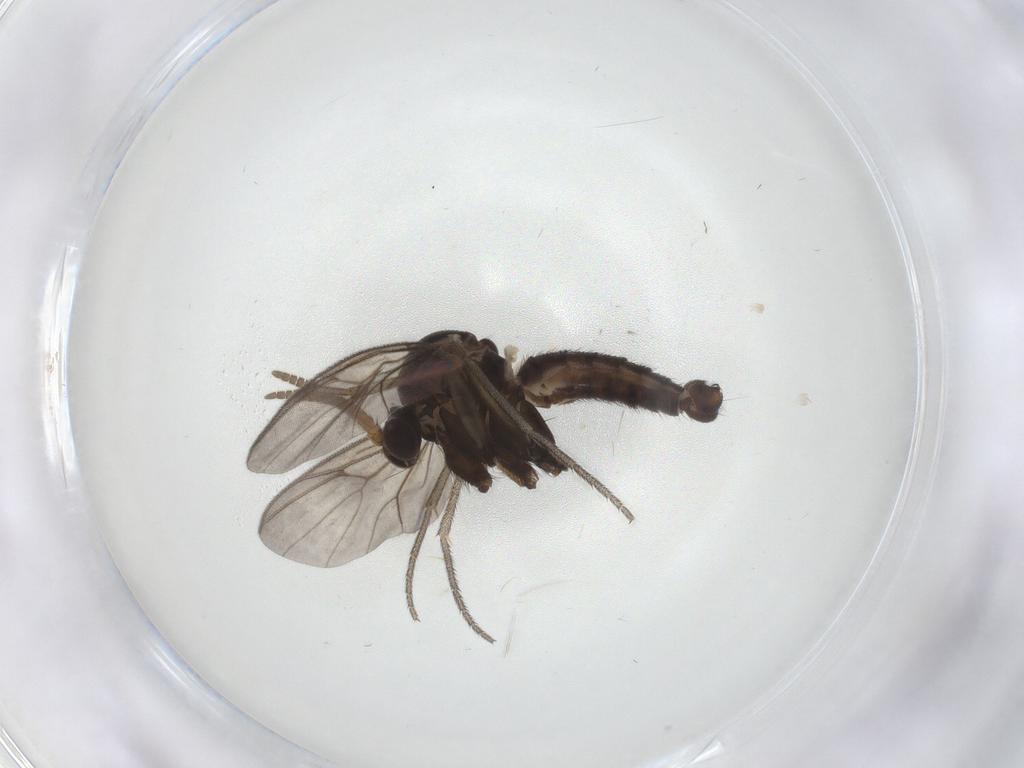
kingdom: Animalia
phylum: Arthropoda
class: Insecta
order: Diptera
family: Mycetophilidae
